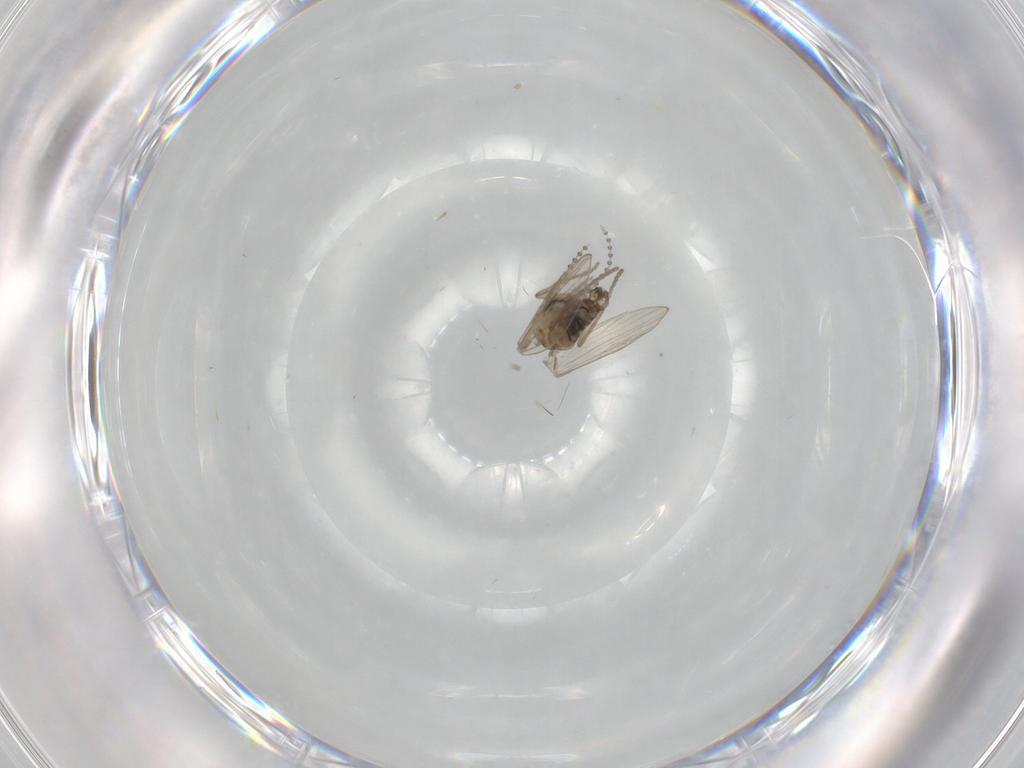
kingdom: Animalia
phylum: Arthropoda
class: Insecta
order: Diptera
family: Psychodidae
